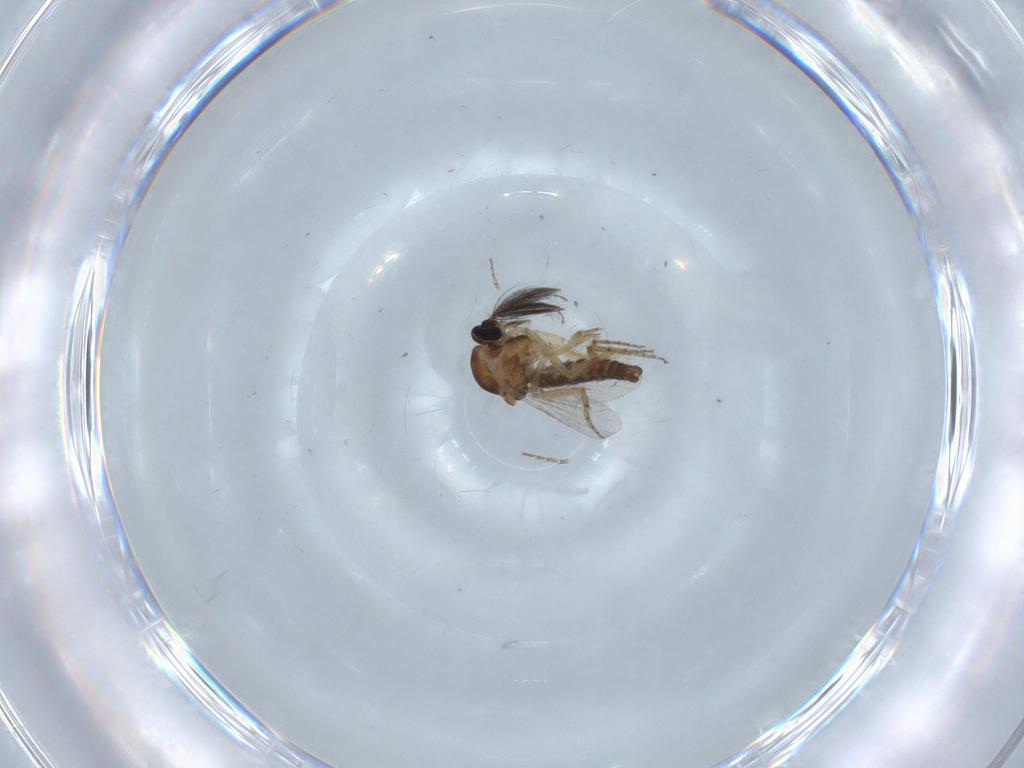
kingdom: Animalia
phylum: Arthropoda
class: Insecta
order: Diptera
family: Ceratopogonidae
